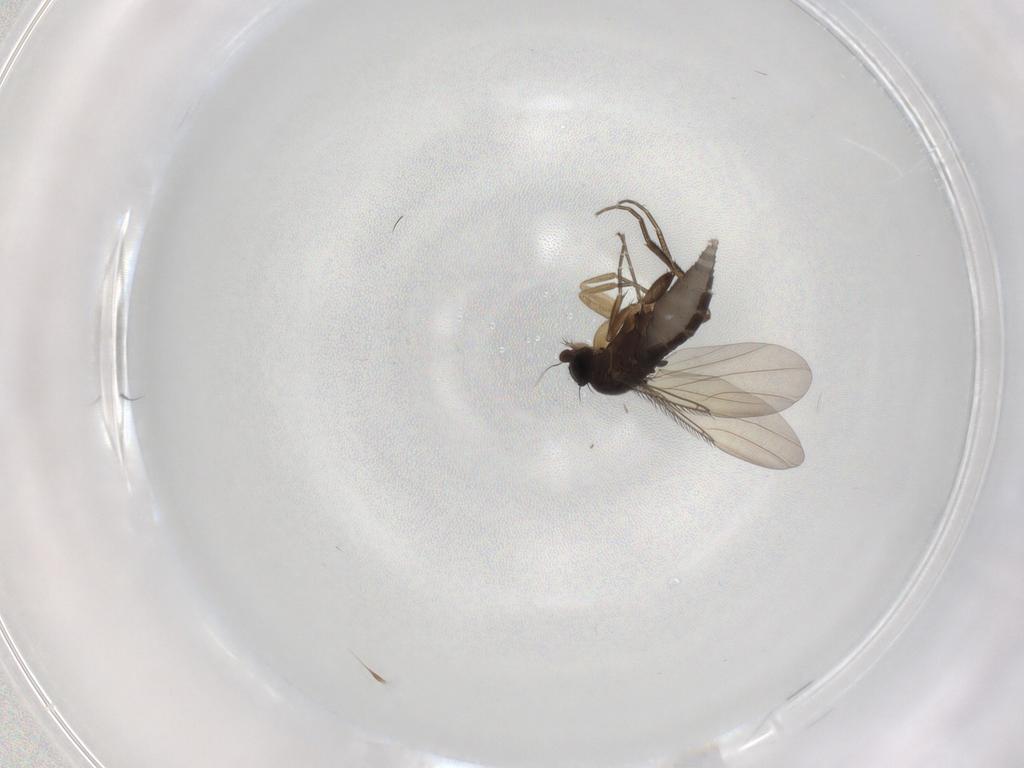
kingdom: Animalia
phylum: Arthropoda
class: Insecta
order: Diptera
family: Phoridae
